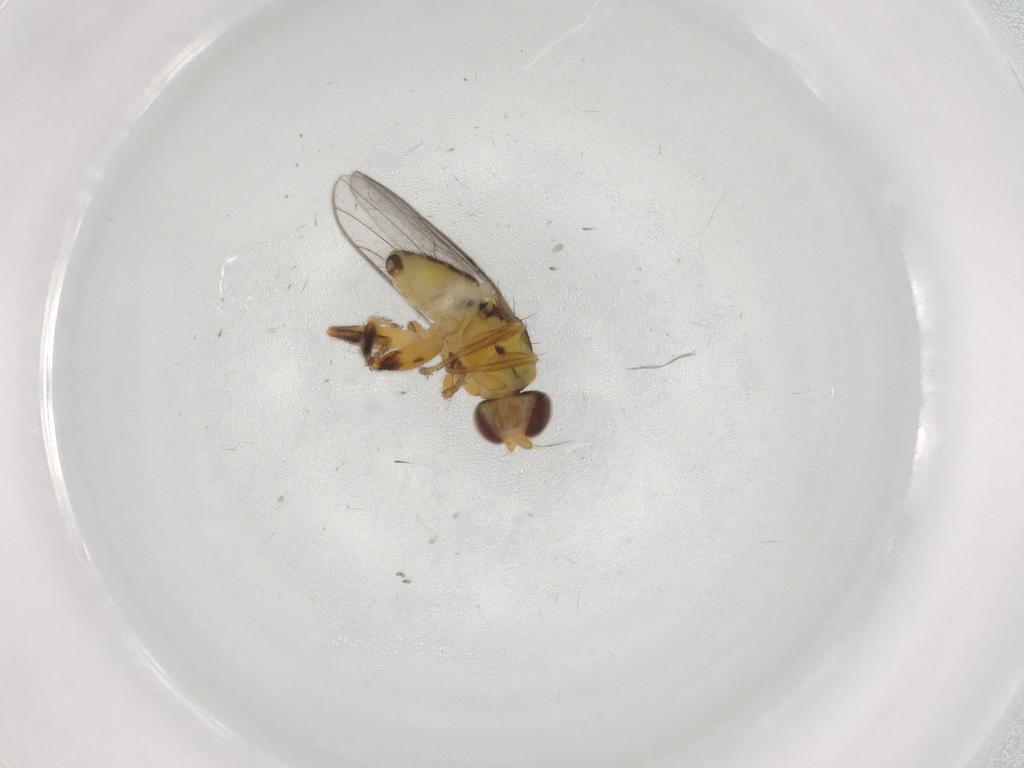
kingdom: Animalia
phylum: Arthropoda
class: Insecta
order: Diptera
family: Chloropidae
